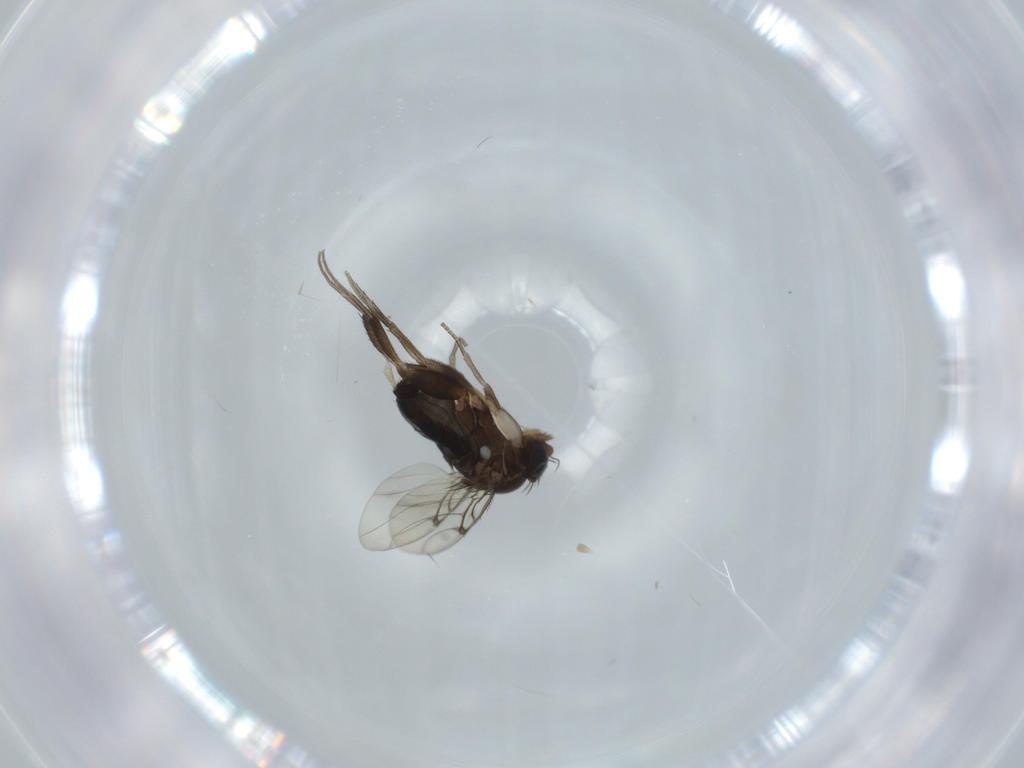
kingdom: Animalia
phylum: Arthropoda
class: Insecta
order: Diptera
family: Phoridae
